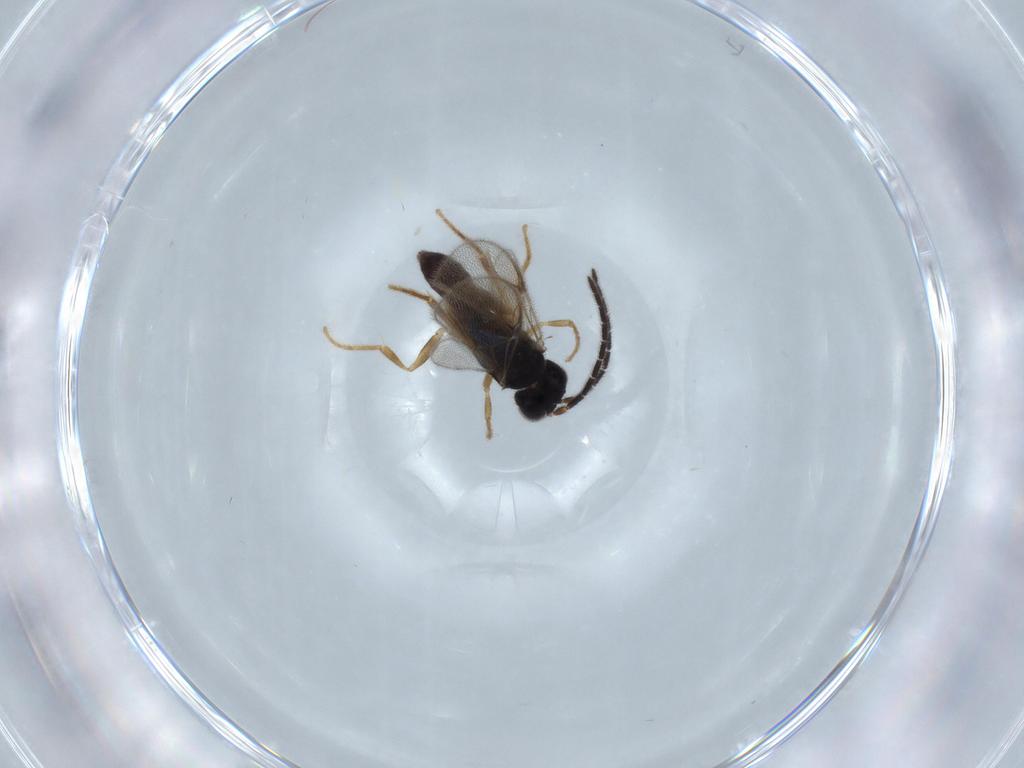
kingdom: Animalia
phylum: Arthropoda
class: Insecta
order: Hymenoptera
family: Dryinidae
